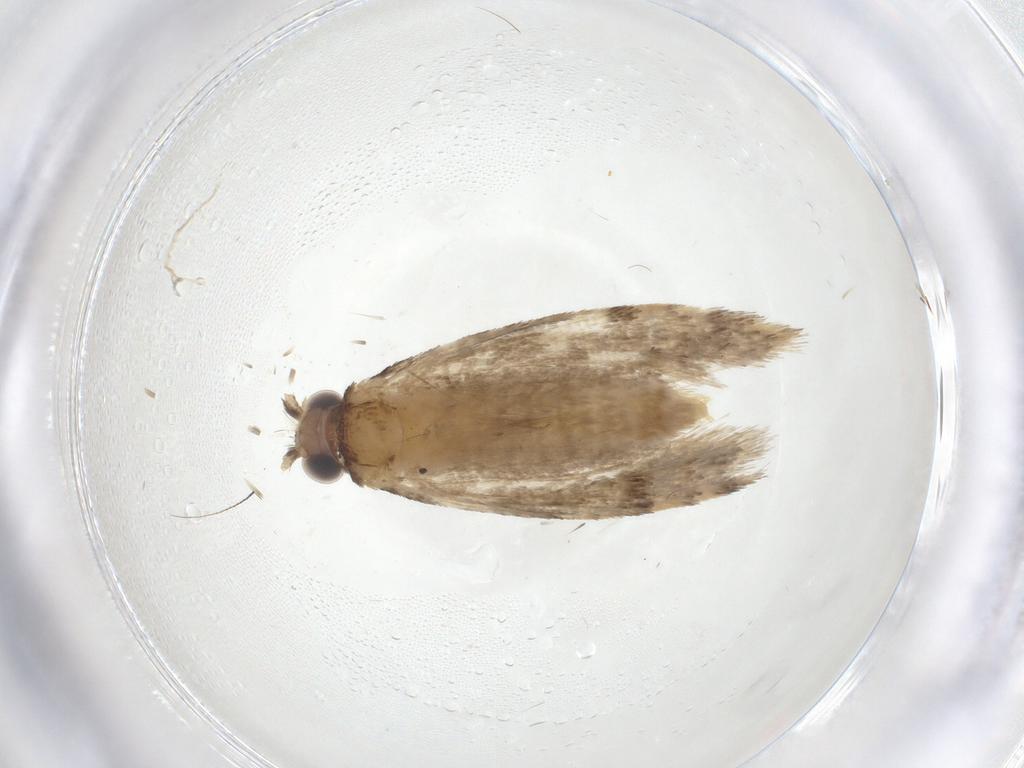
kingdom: Animalia
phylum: Arthropoda
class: Insecta
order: Lepidoptera
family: Tineidae
